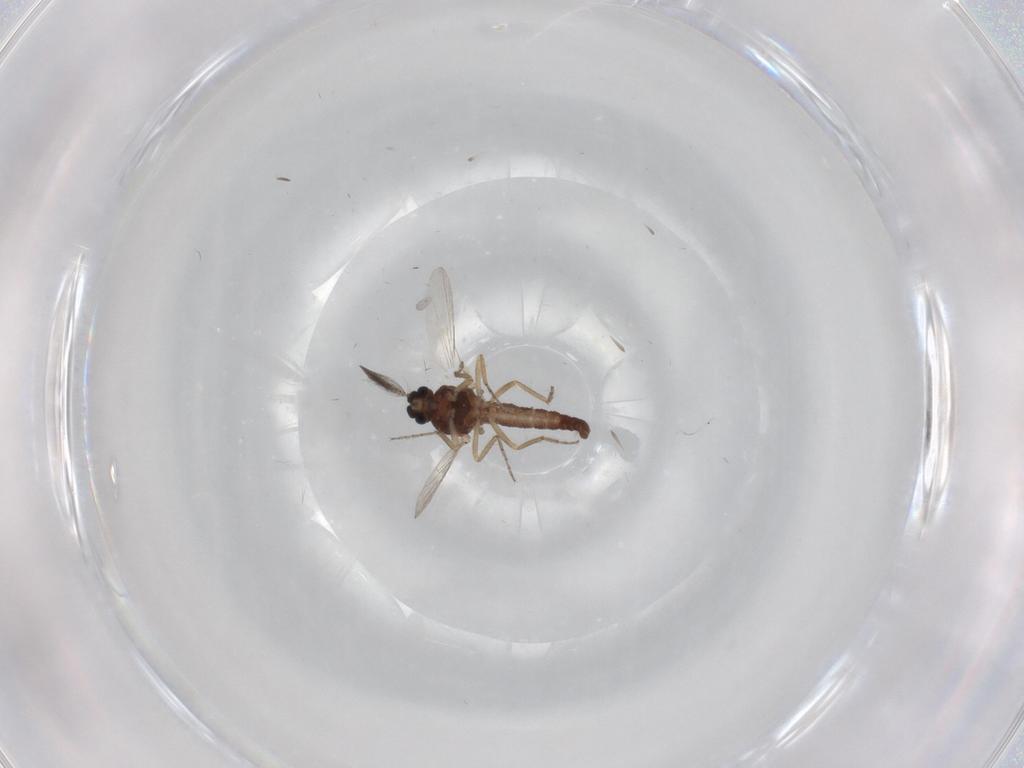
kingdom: Animalia
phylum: Arthropoda
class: Insecta
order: Diptera
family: Ceratopogonidae
